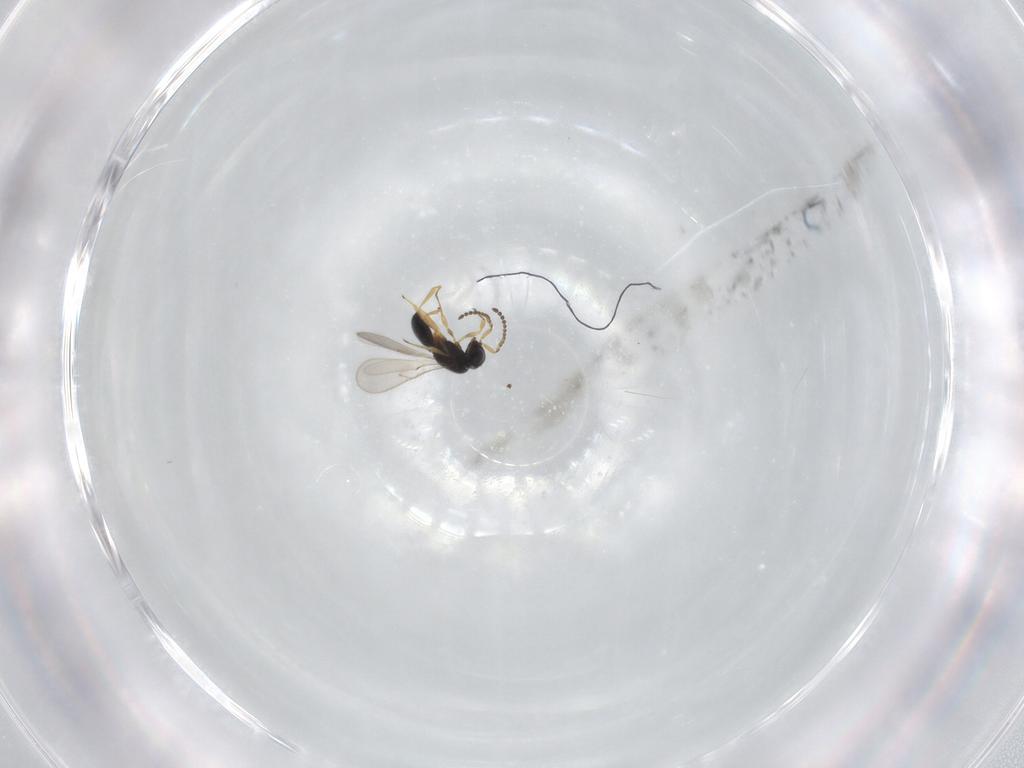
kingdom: Animalia
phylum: Arthropoda
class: Insecta
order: Hymenoptera
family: Scelionidae
